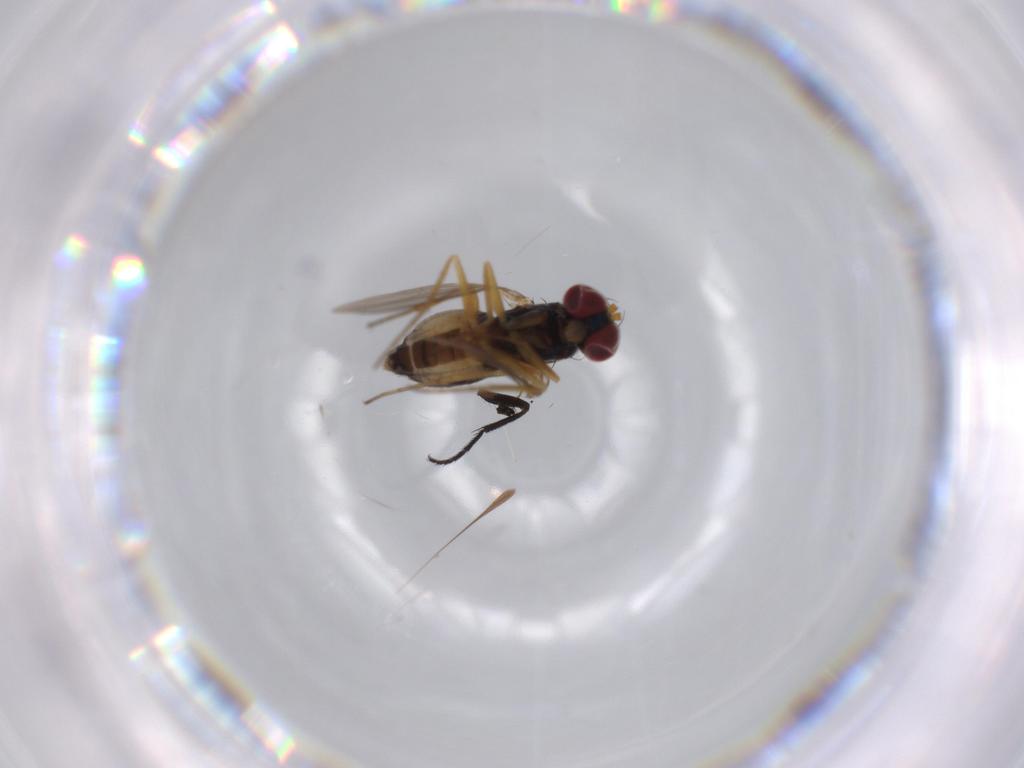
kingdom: Animalia
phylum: Arthropoda
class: Insecta
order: Diptera
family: Dolichopodidae
